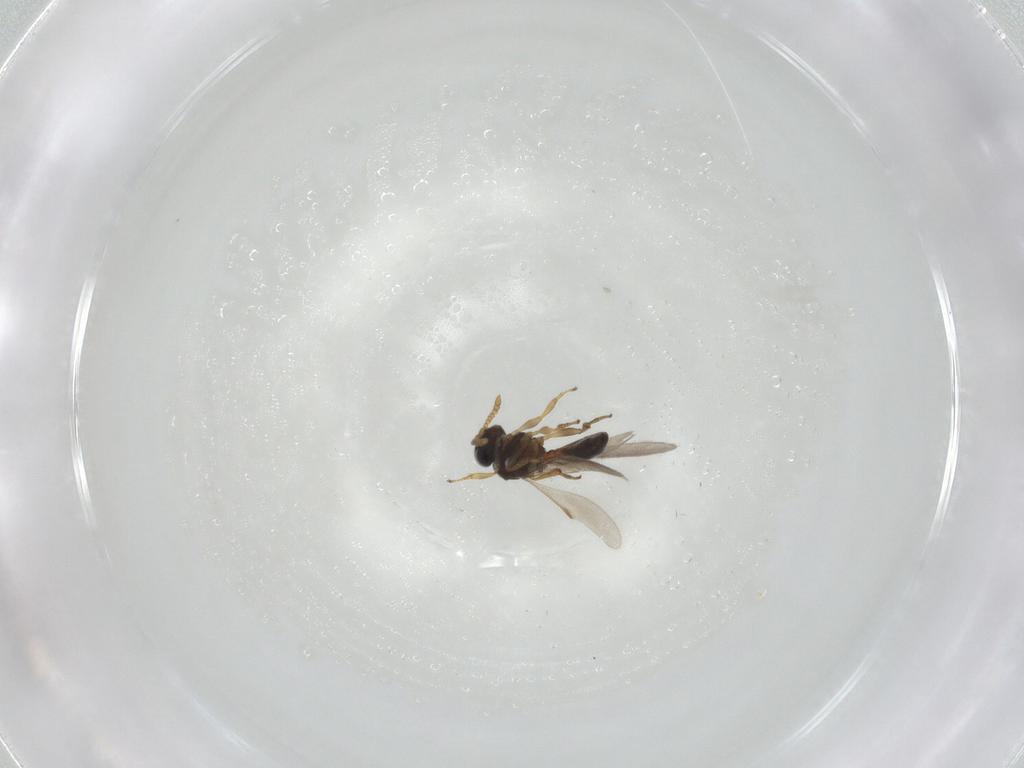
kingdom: Animalia
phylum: Arthropoda
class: Insecta
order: Hymenoptera
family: Scelionidae
